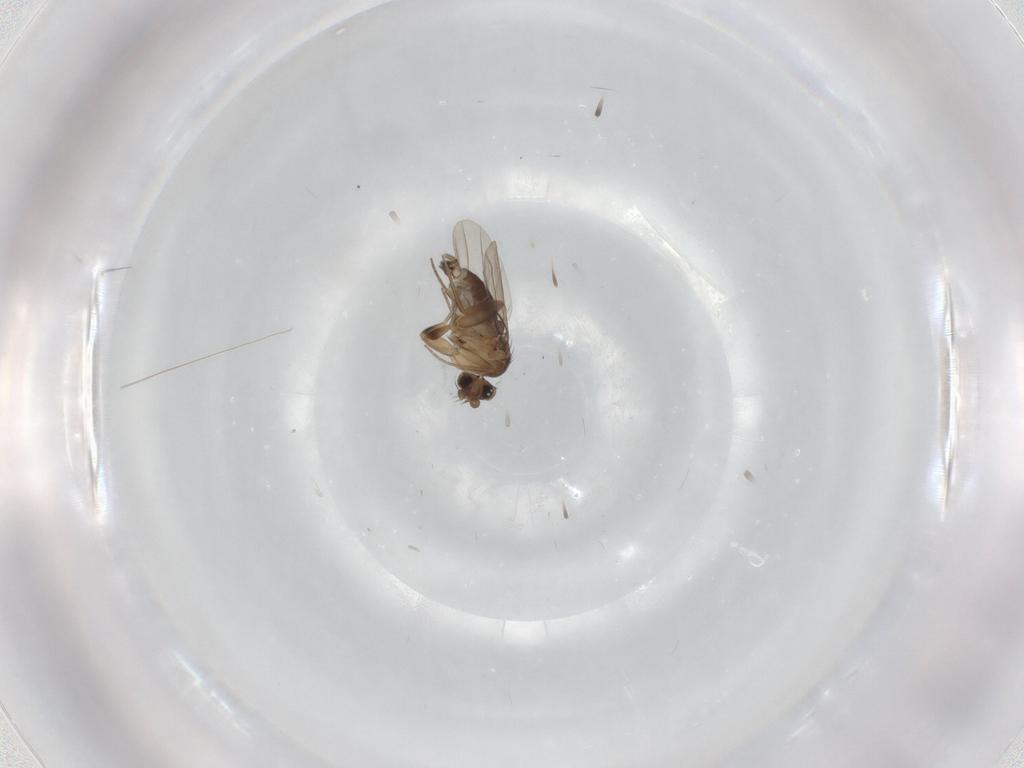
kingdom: Animalia
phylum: Arthropoda
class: Insecta
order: Diptera
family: Phoridae
